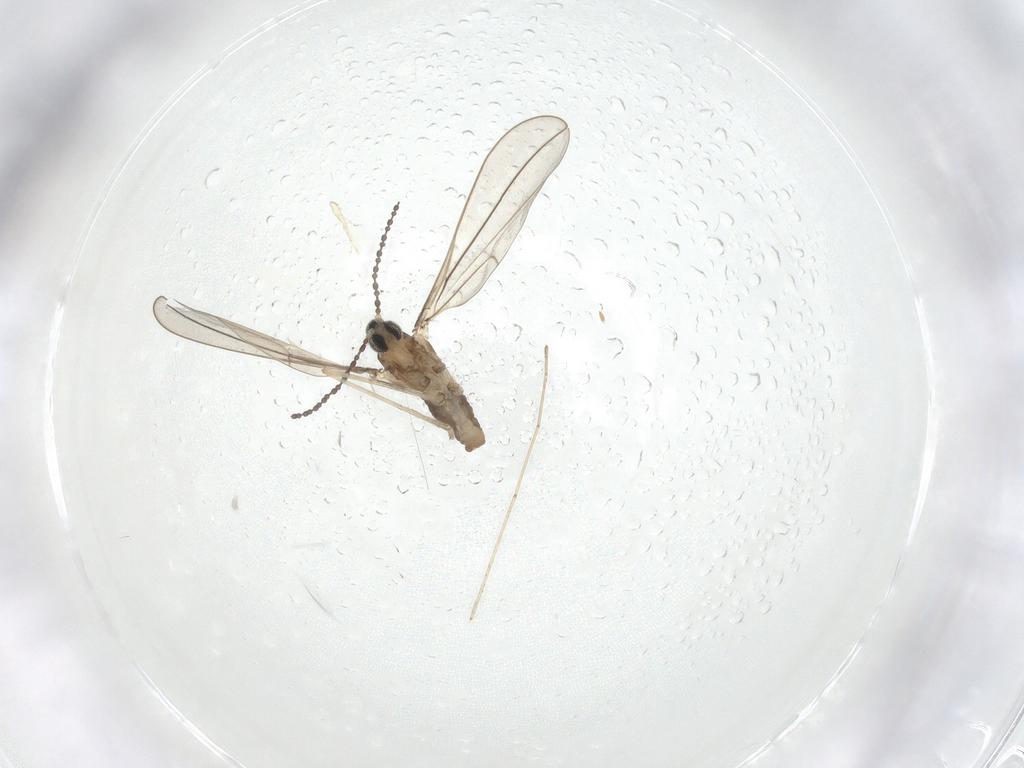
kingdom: Animalia
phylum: Arthropoda
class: Insecta
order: Diptera
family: Cecidomyiidae
